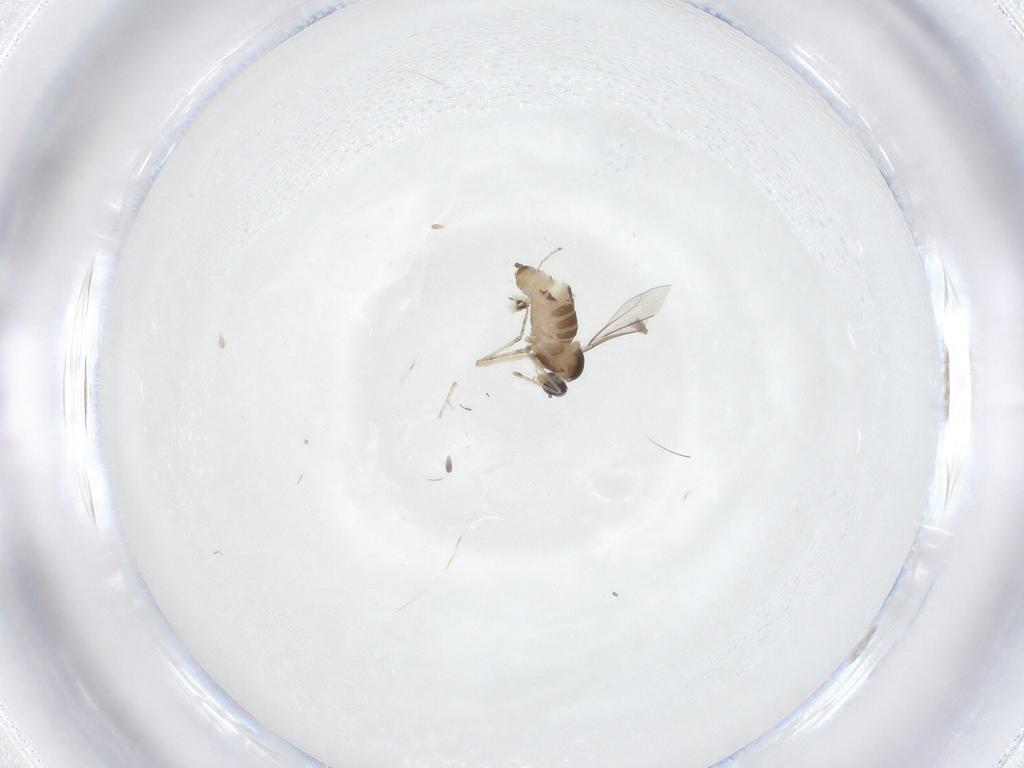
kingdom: Animalia
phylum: Arthropoda
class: Insecta
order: Diptera
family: Cecidomyiidae
